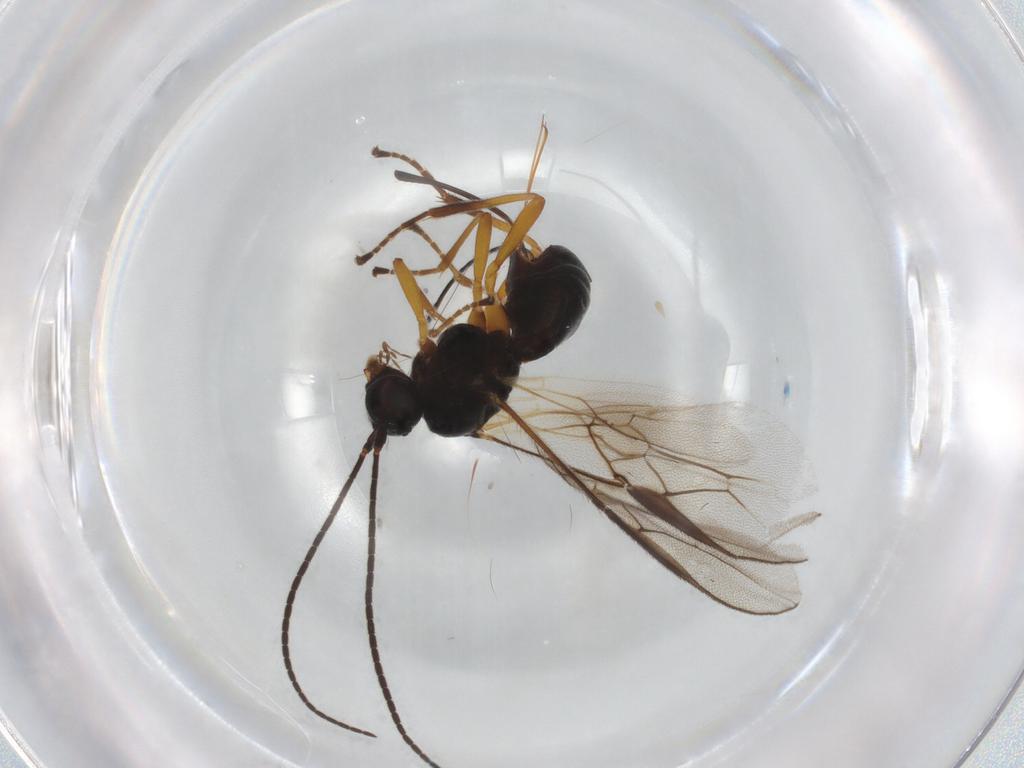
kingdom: Animalia
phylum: Arthropoda
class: Insecta
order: Hymenoptera
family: Braconidae
